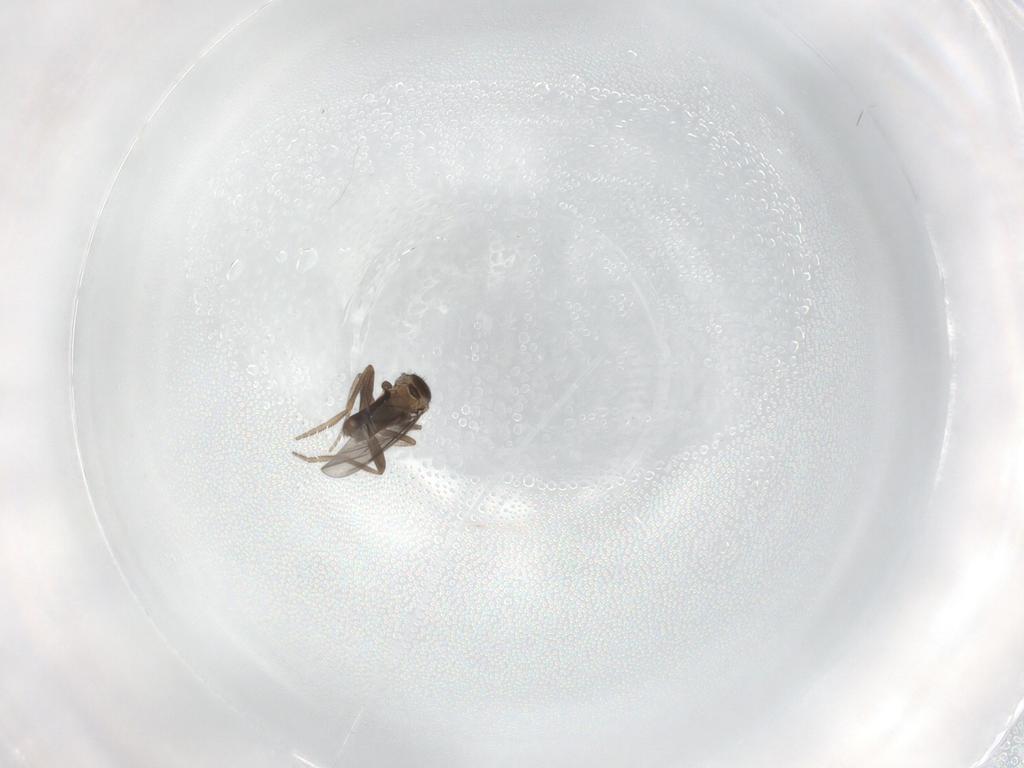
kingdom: Animalia
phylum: Arthropoda
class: Insecta
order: Diptera
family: Phoridae
